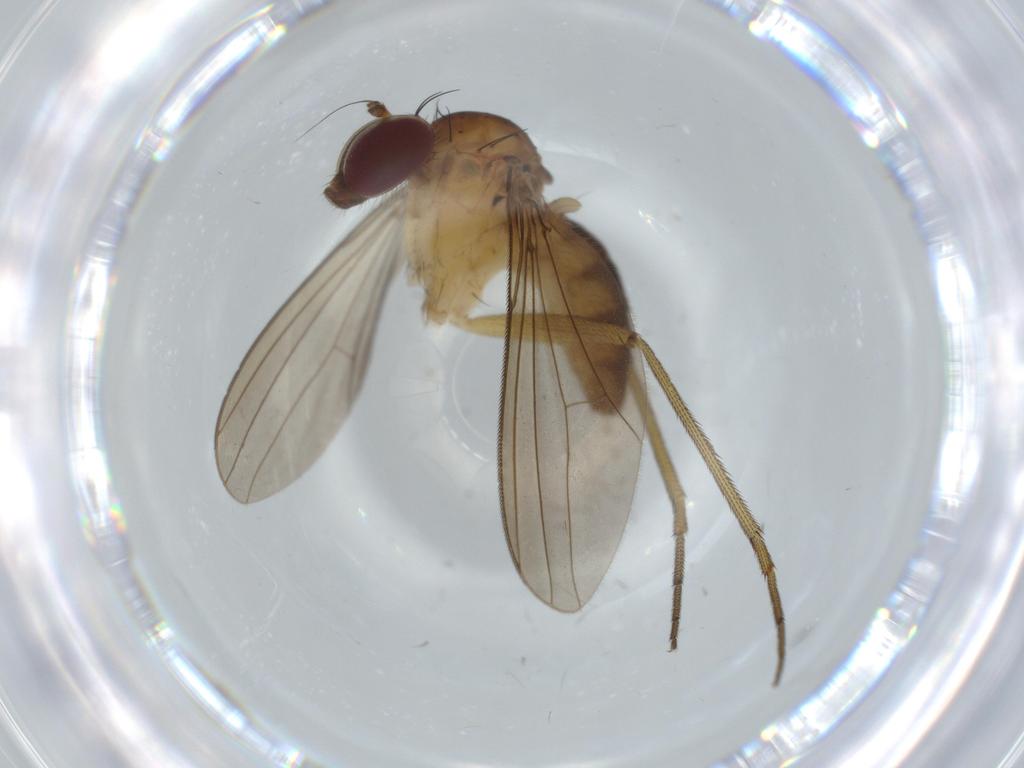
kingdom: Animalia
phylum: Arthropoda
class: Insecta
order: Diptera
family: Dolichopodidae
